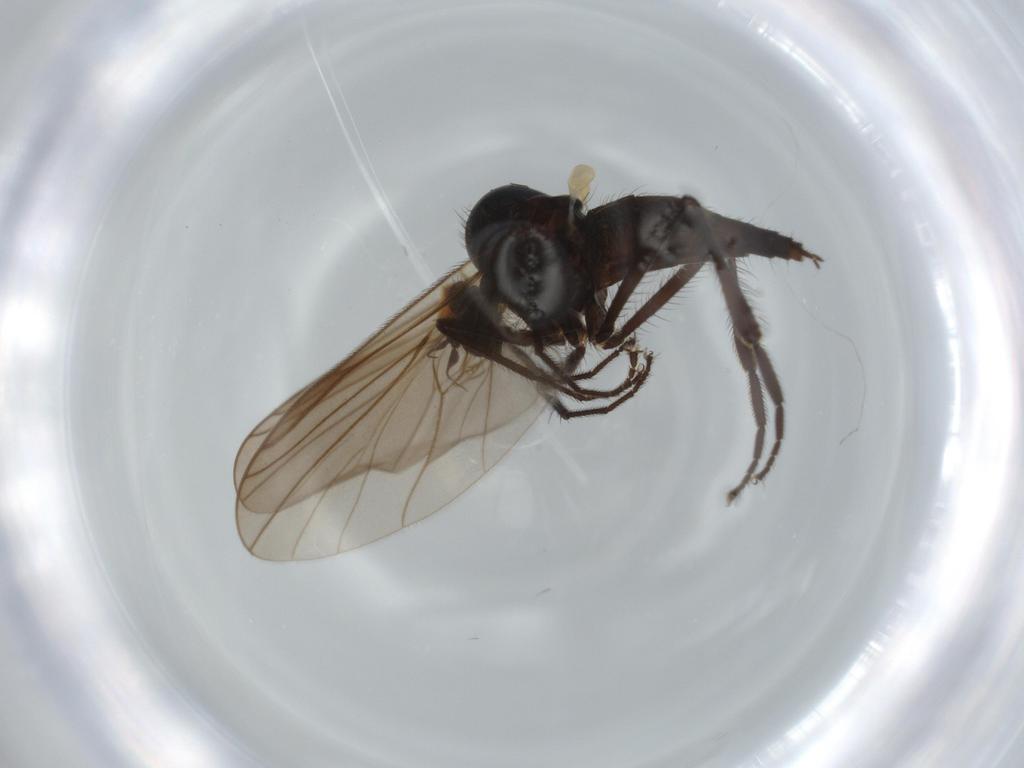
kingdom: Animalia
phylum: Arthropoda
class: Insecta
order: Diptera
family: Hybotidae
